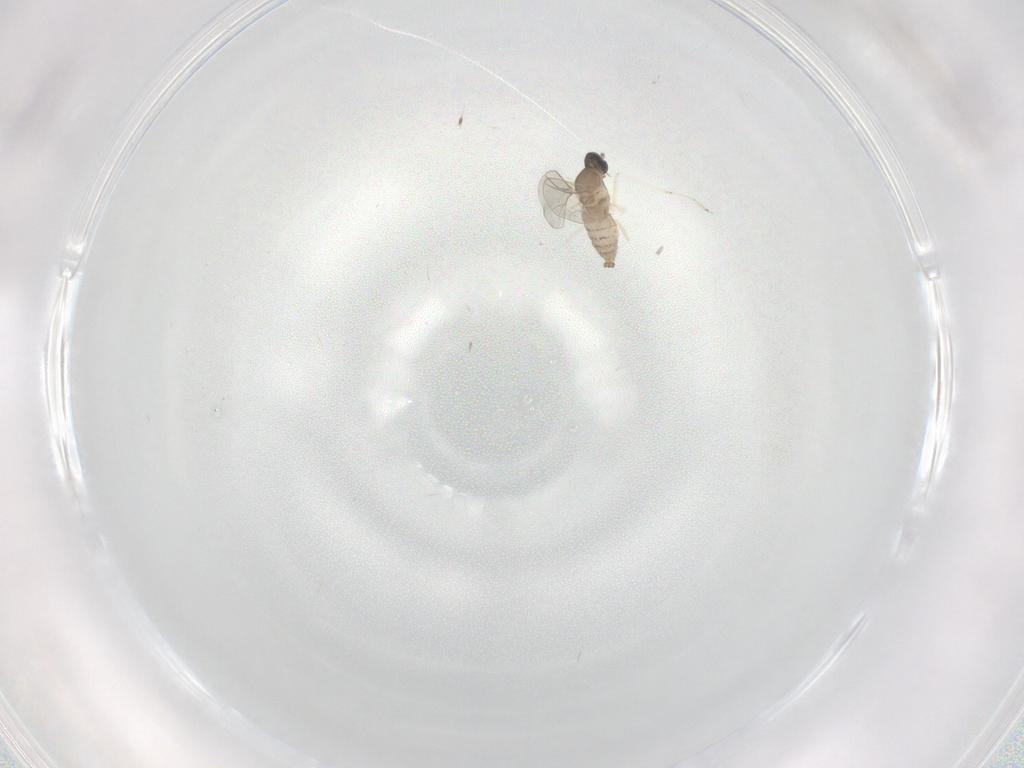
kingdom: Animalia
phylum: Arthropoda
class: Insecta
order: Diptera
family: Cecidomyiidae
